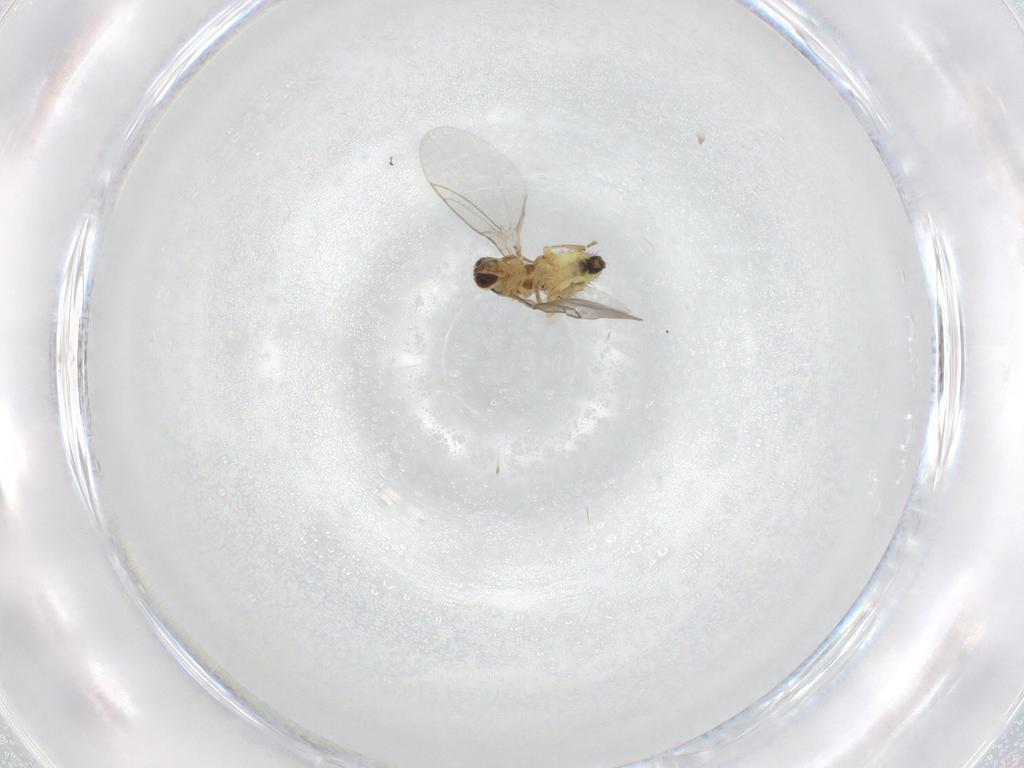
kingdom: Animalia
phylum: Arthropoda
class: Insecta
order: Diptera
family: Agromyzidae
